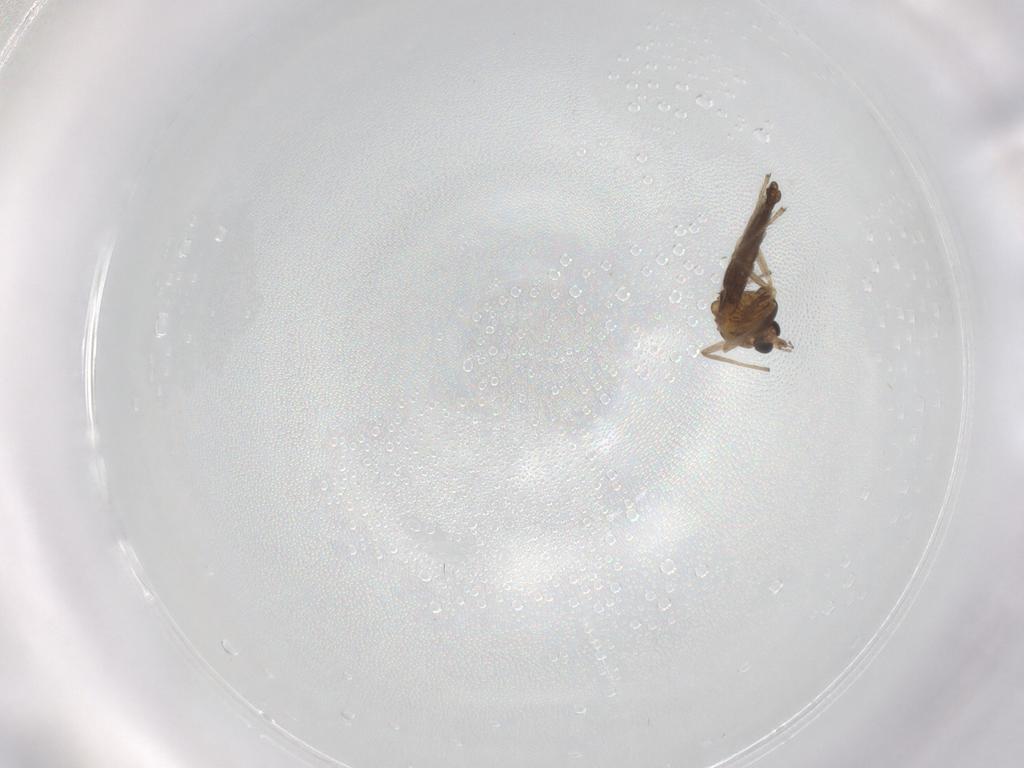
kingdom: Animalia
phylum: Arthropoda
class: Insecta
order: Diptera
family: Chironomidae
